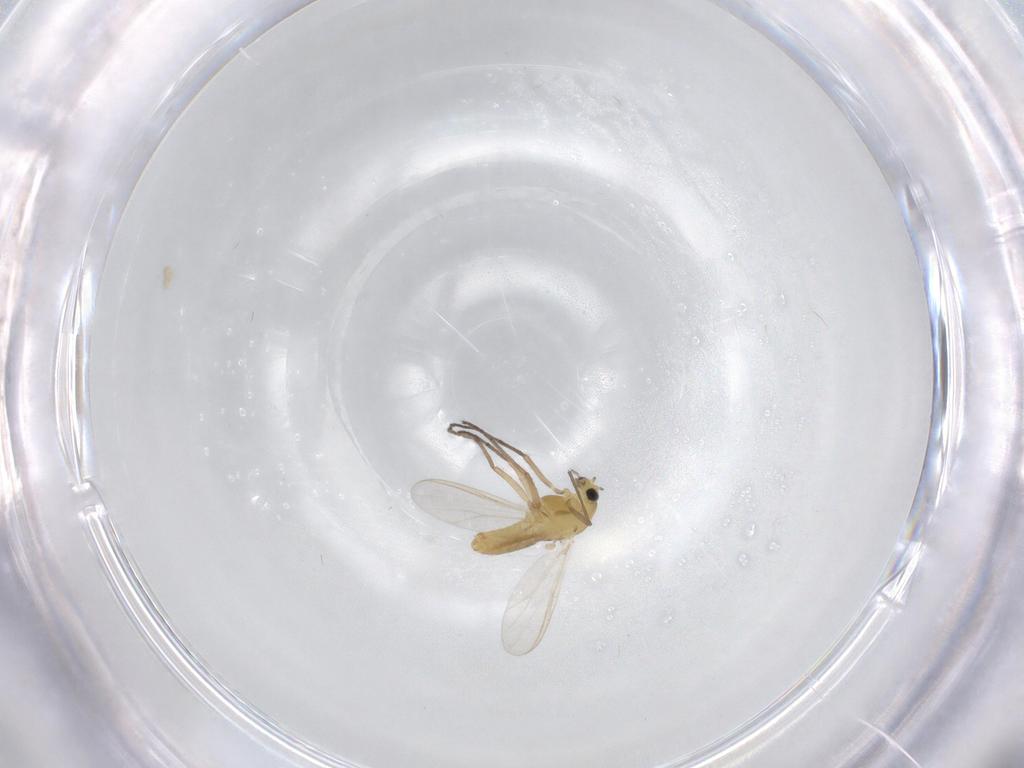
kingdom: Animalia
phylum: Arthropoda
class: Insecta
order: Diptera
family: Chironomidae
